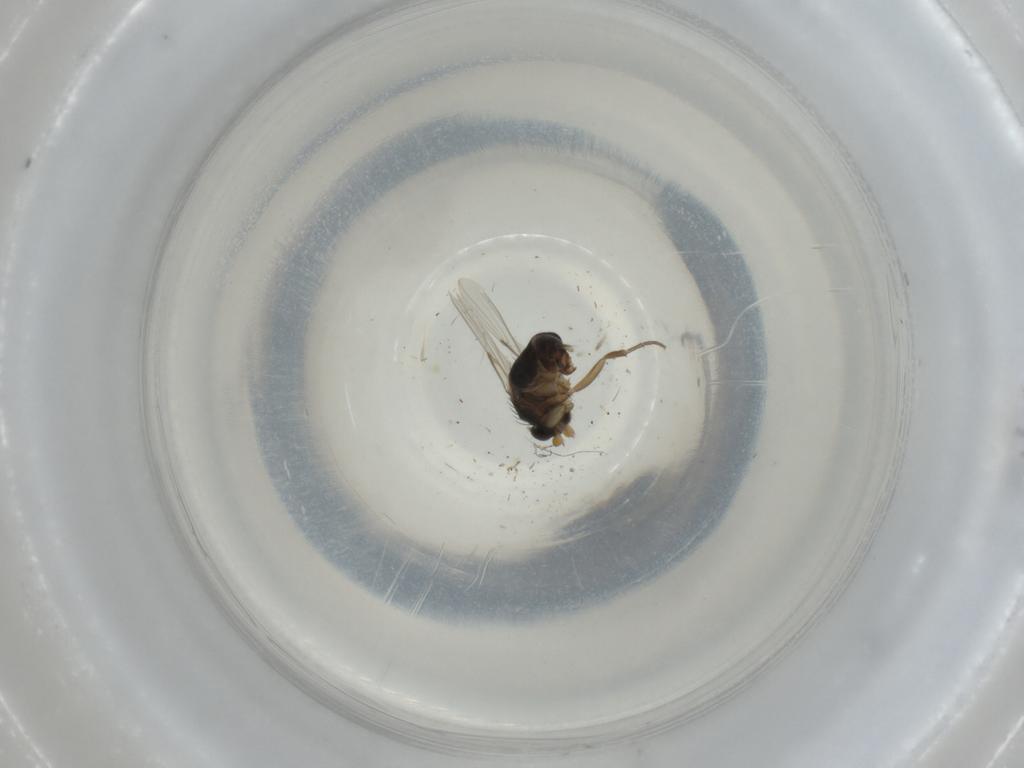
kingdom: Animalia
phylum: Arthropoda
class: Insecta
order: Diptera
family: Phoridae
